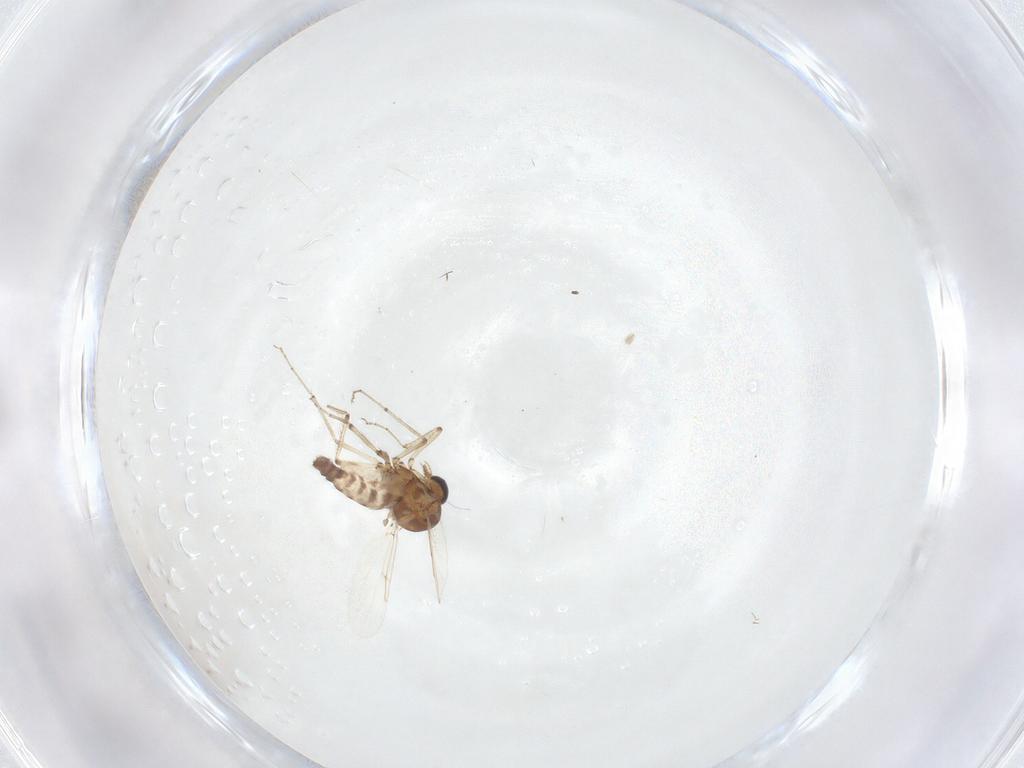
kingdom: Animalia
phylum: Arthropoda
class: Insecta
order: Diptera
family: Ceratopogonidae
